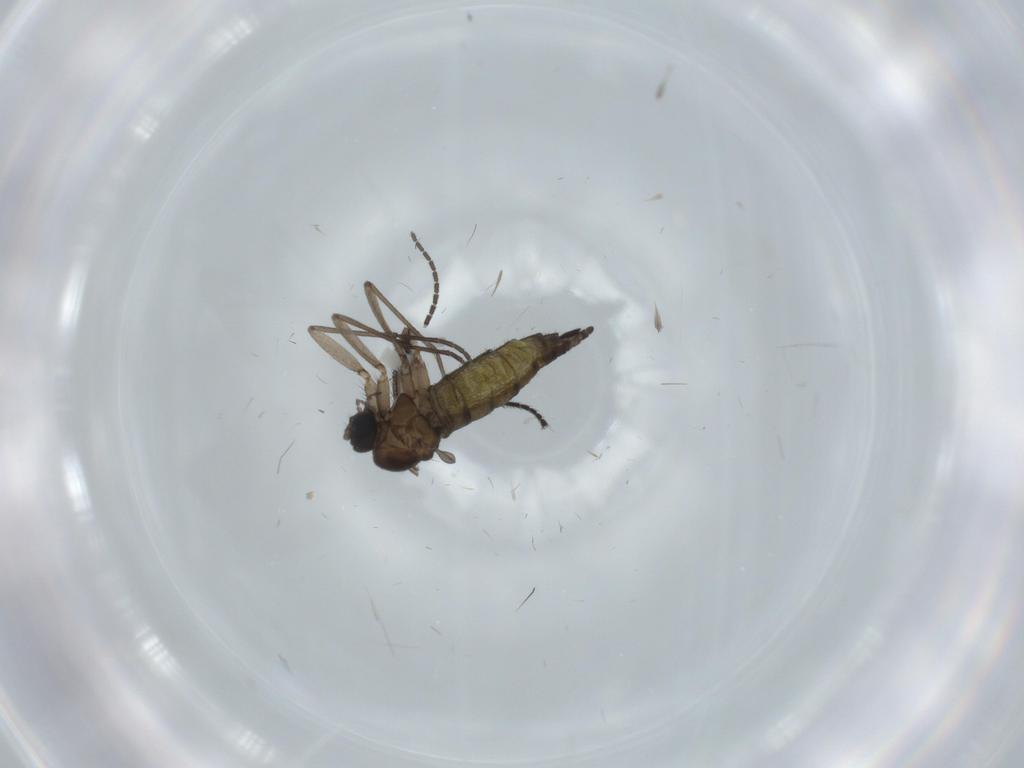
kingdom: Animalia
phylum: Arthropoda
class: Insecta
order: Diptera
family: Sciaridae
